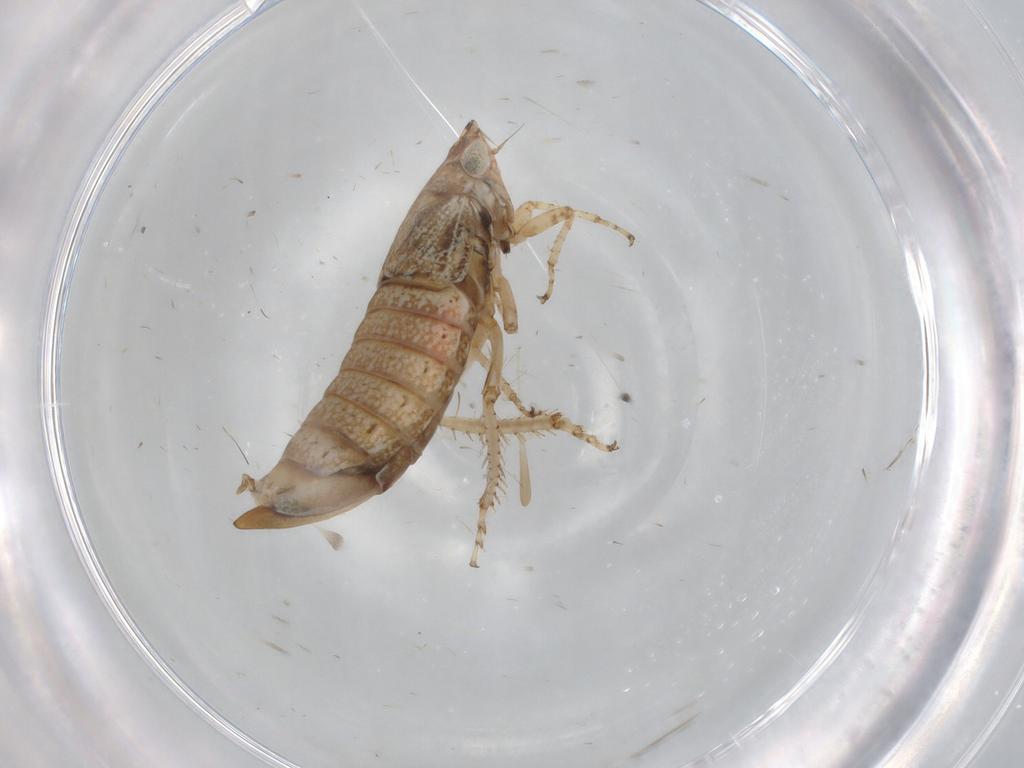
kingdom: Animalia
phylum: Arthropoda
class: Insecta
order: Hemiptera
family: Cicadellidae
